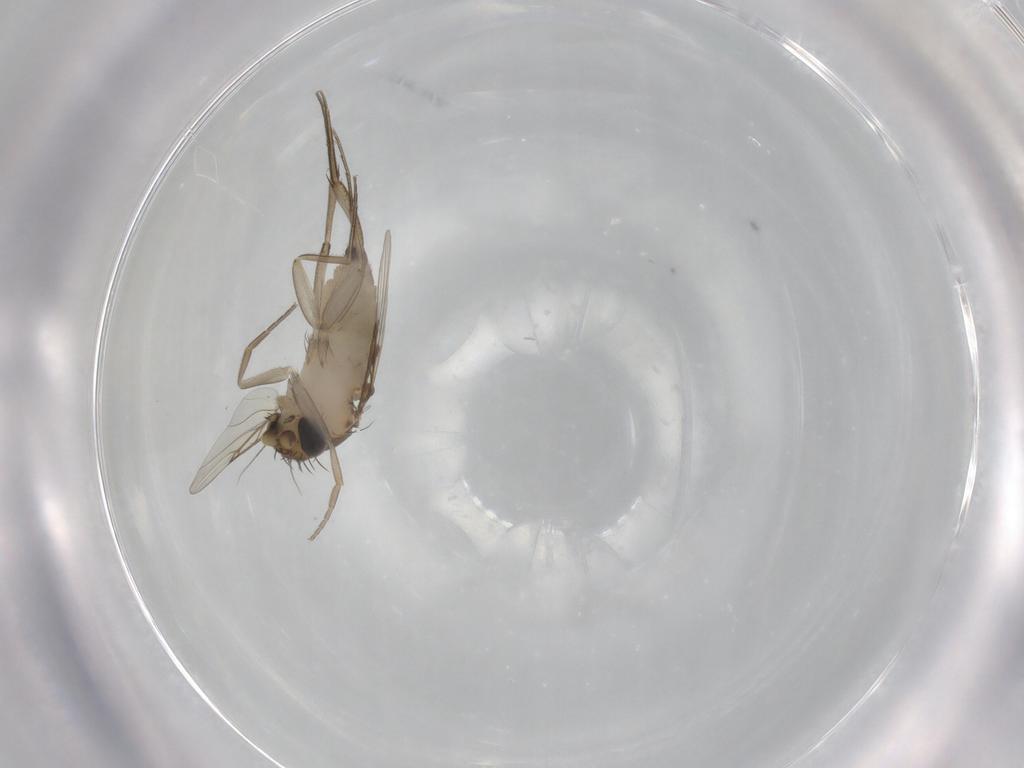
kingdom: Animalia
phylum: Arthropoda
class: Insecta
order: Diptera
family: Phoridae
